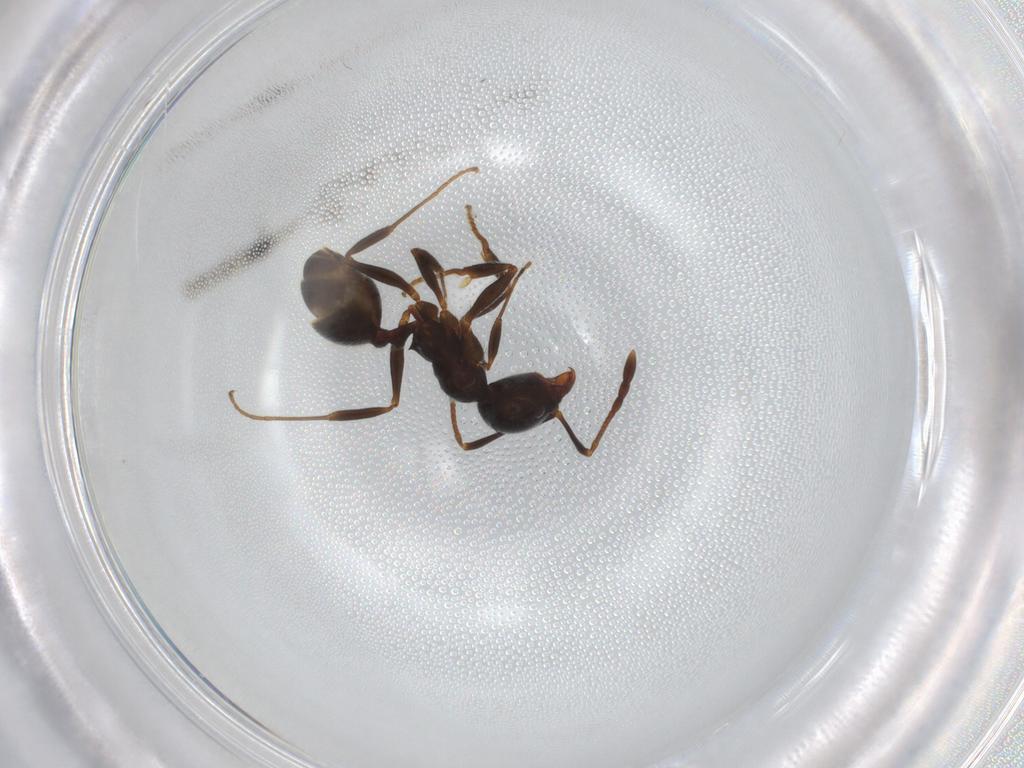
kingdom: Animalia
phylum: Arthropoda
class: Insecta
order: Hymenoptera
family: Formicidae
